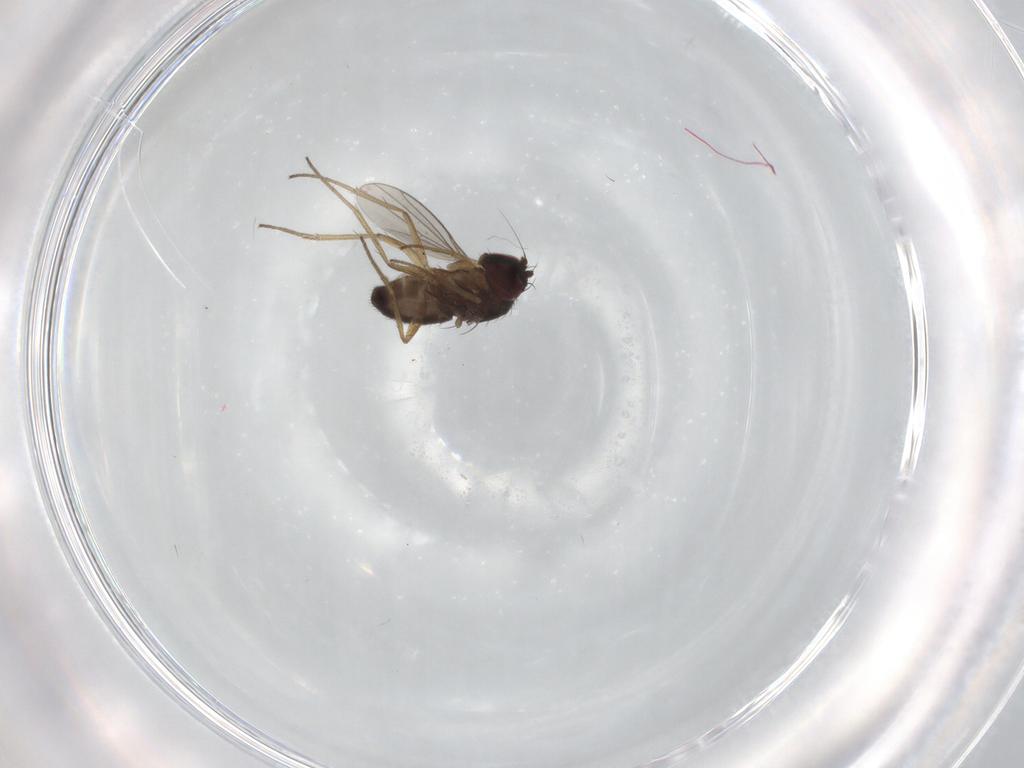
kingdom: Animalia
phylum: Arthropoda
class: Insecta
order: Diptera
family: Dolichopodidae
